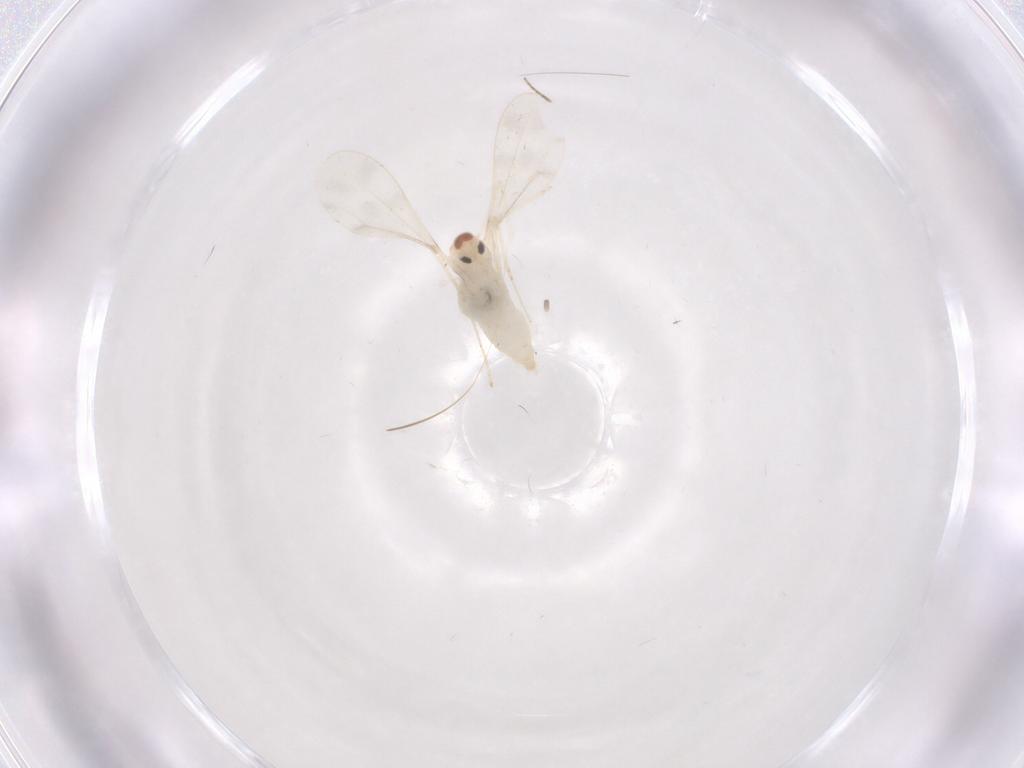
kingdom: Animalia
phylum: Arthropoda
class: Insecta
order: Diptera
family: Cecidomyiidae
